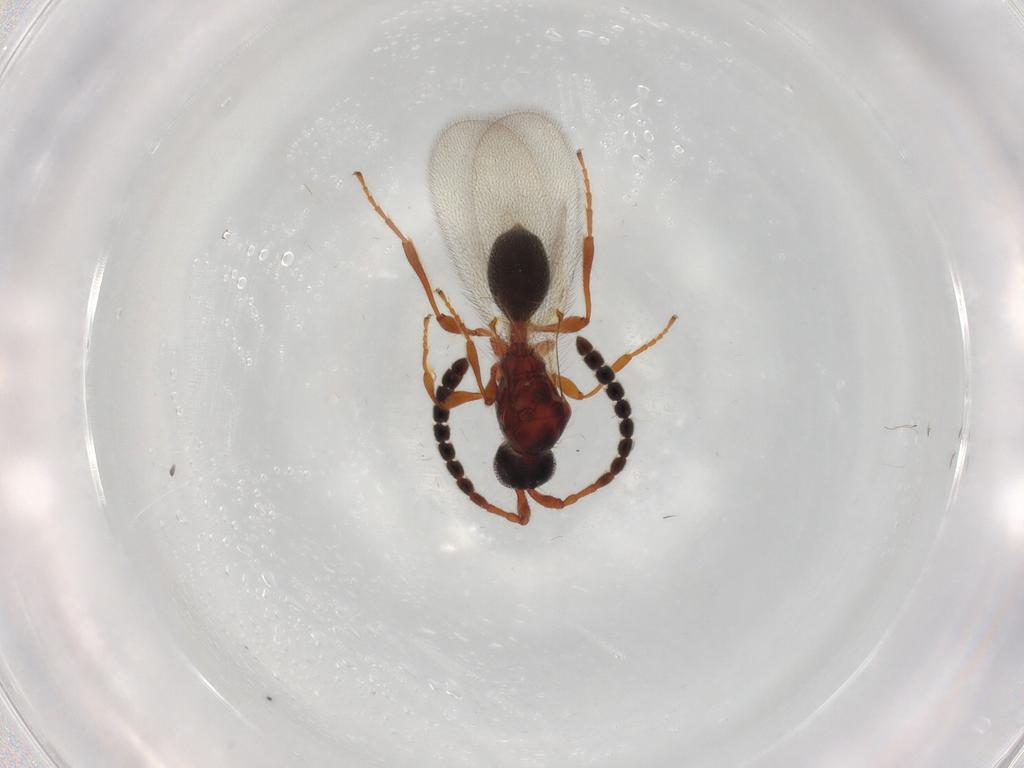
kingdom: Animalia
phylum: Arthropoda
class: Insecta
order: Hymenoptera
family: Diapriidae
